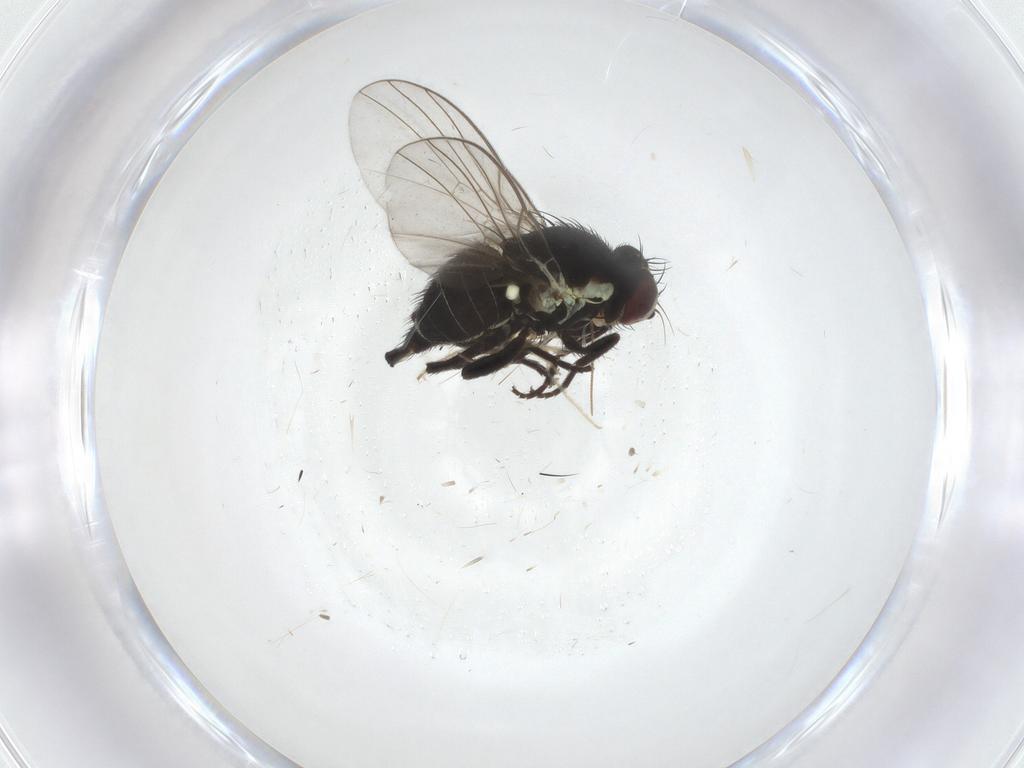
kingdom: Animalia
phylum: Arthropoda
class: Insecta
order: Diptera
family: Agromyzidae
